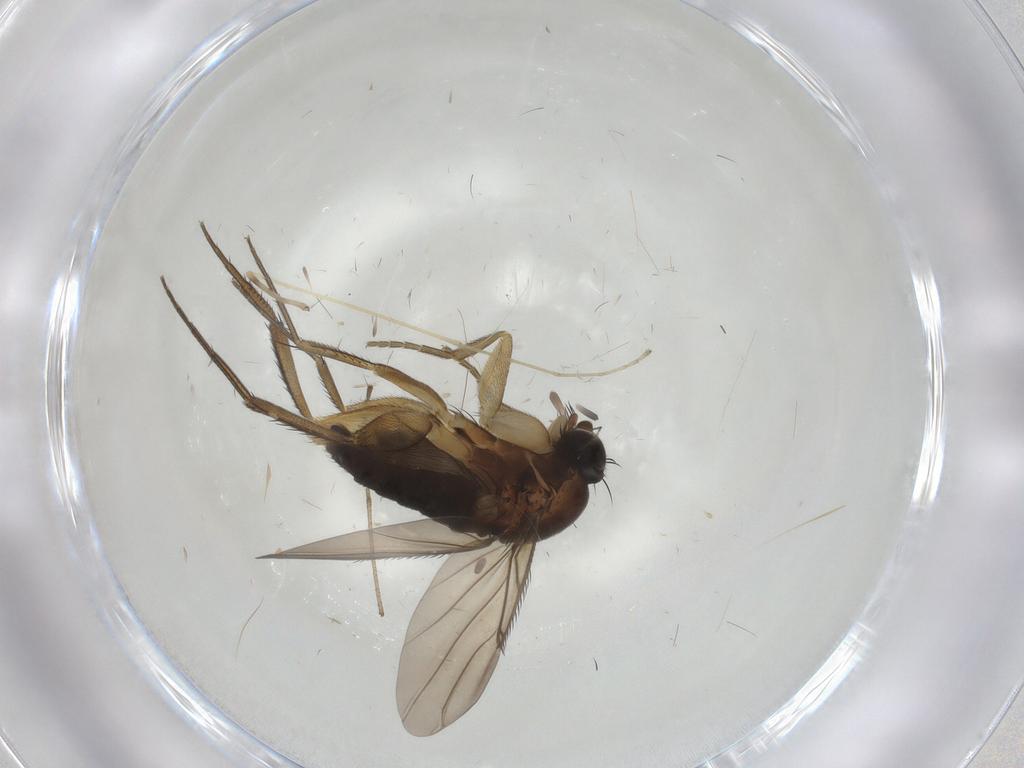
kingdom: Animalia
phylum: Arthropoda
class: Insecta
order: Diptera
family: Phoridae
